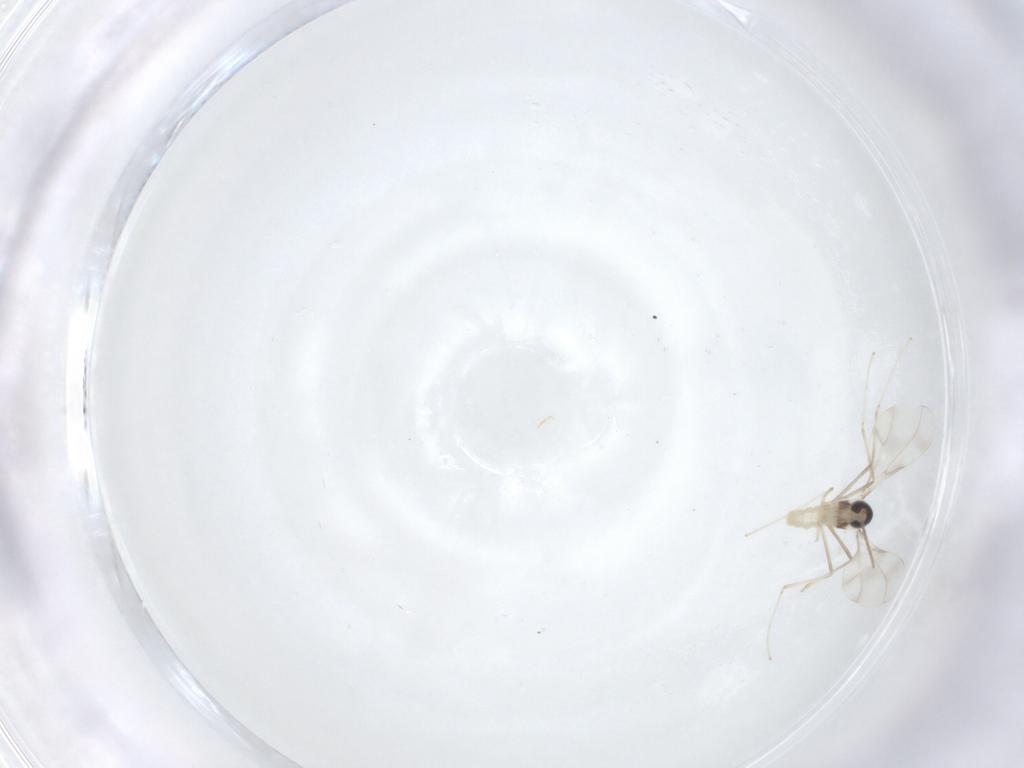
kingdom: Animalia
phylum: Arthropoda
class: Insecta
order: Diptera
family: Cecidomyiidae
